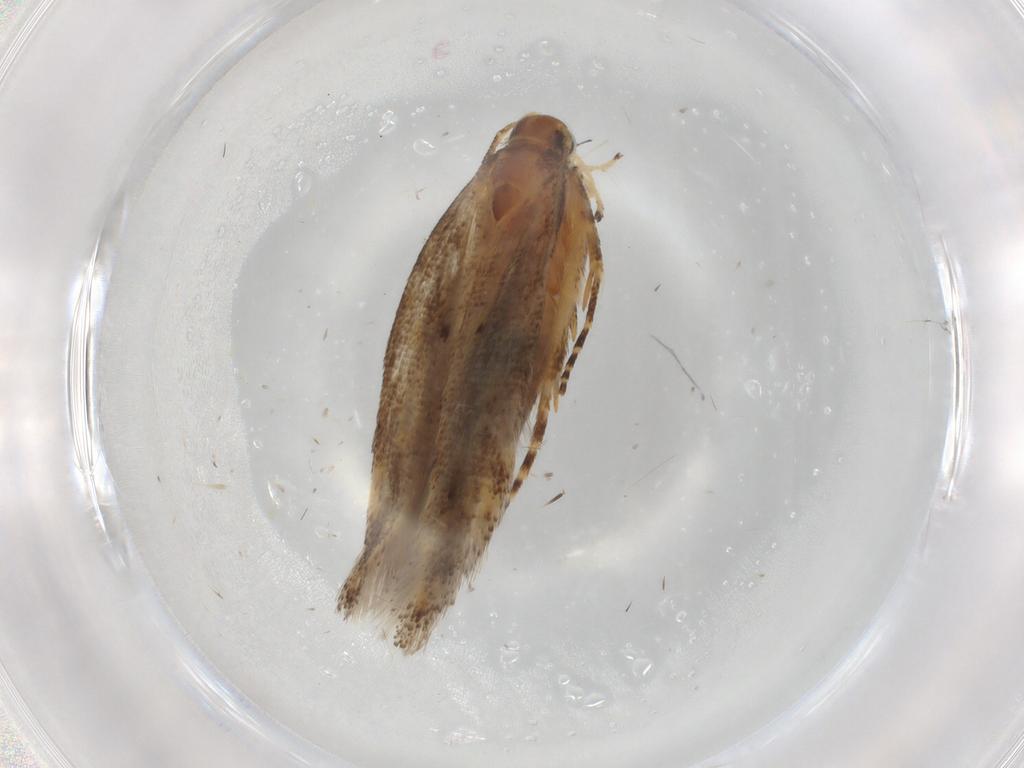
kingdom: Animalia
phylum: Arthropoda
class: Insecta
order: Lepidoptera
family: Gelechiidae
